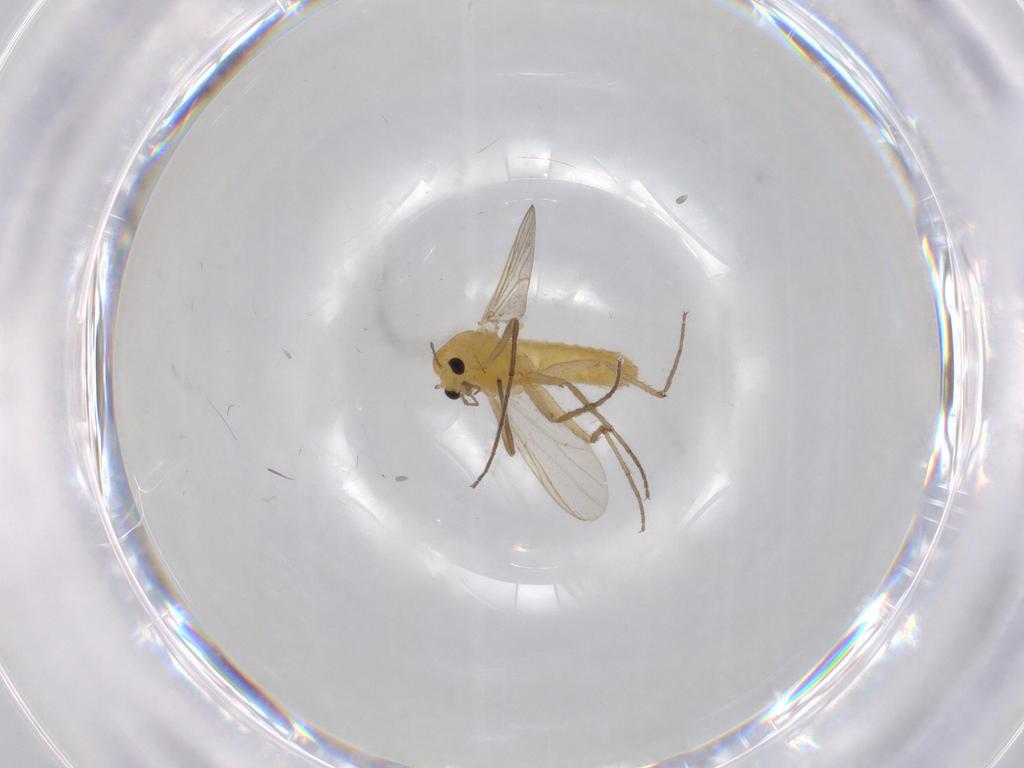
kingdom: Animalia
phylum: Arthropoda
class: Insecta
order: Diptera
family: Chironomidae
